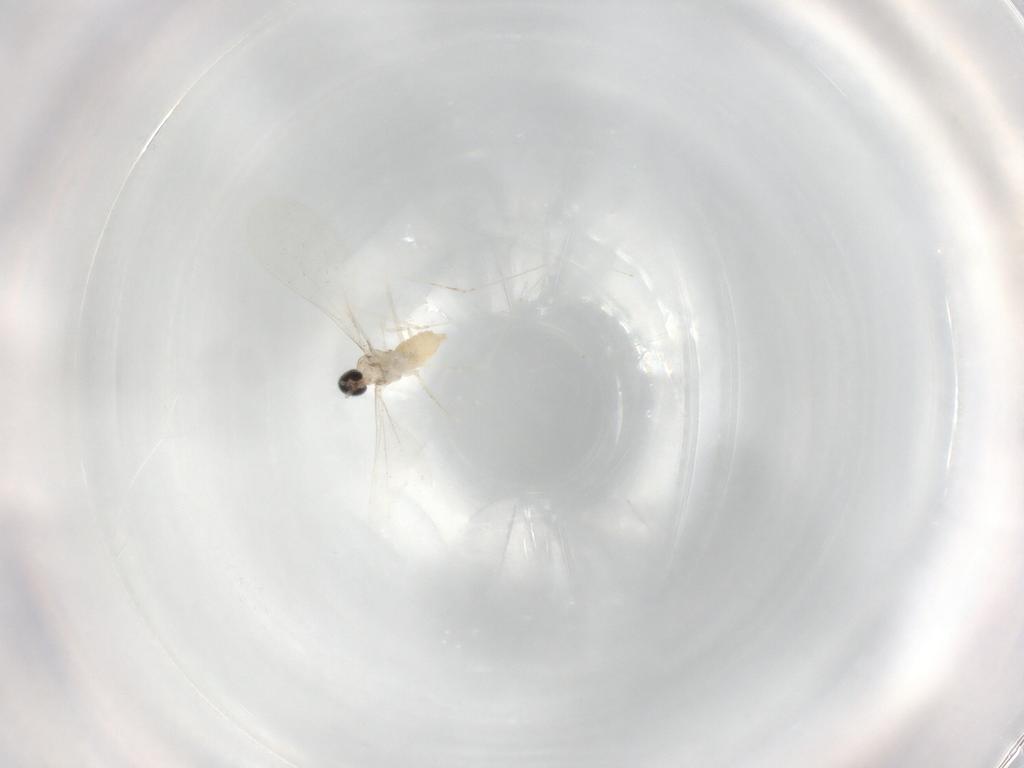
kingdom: Animalia
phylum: Arthropoda
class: Insecta
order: Diptera
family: Cecidomyiidae
